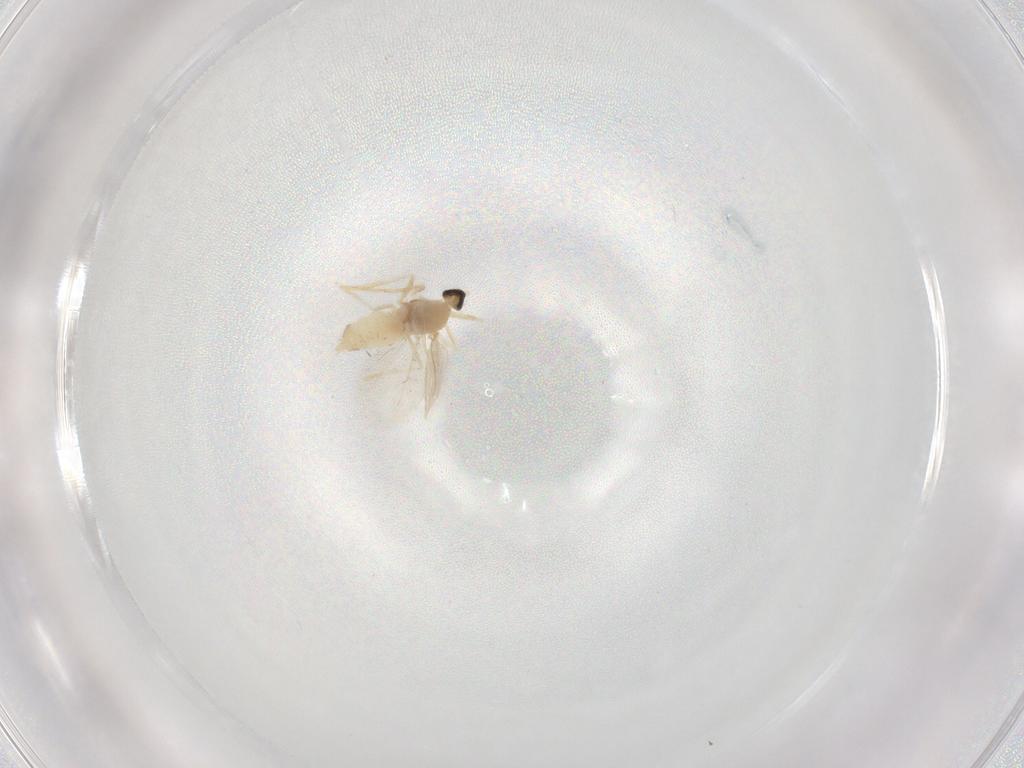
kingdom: Animalia
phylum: Arthropoda
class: Insecta
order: Diptera
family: Cecidomyiidae
